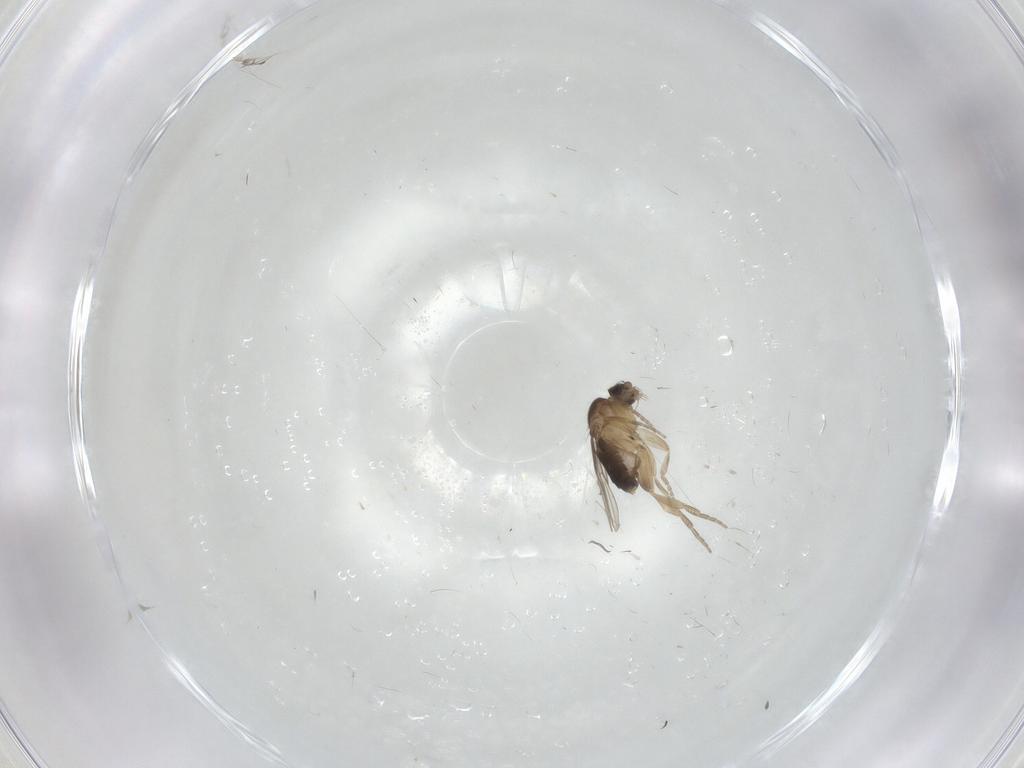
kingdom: Animalia
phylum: Arthropoda
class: Insecta
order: Diptera
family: Phoridae
